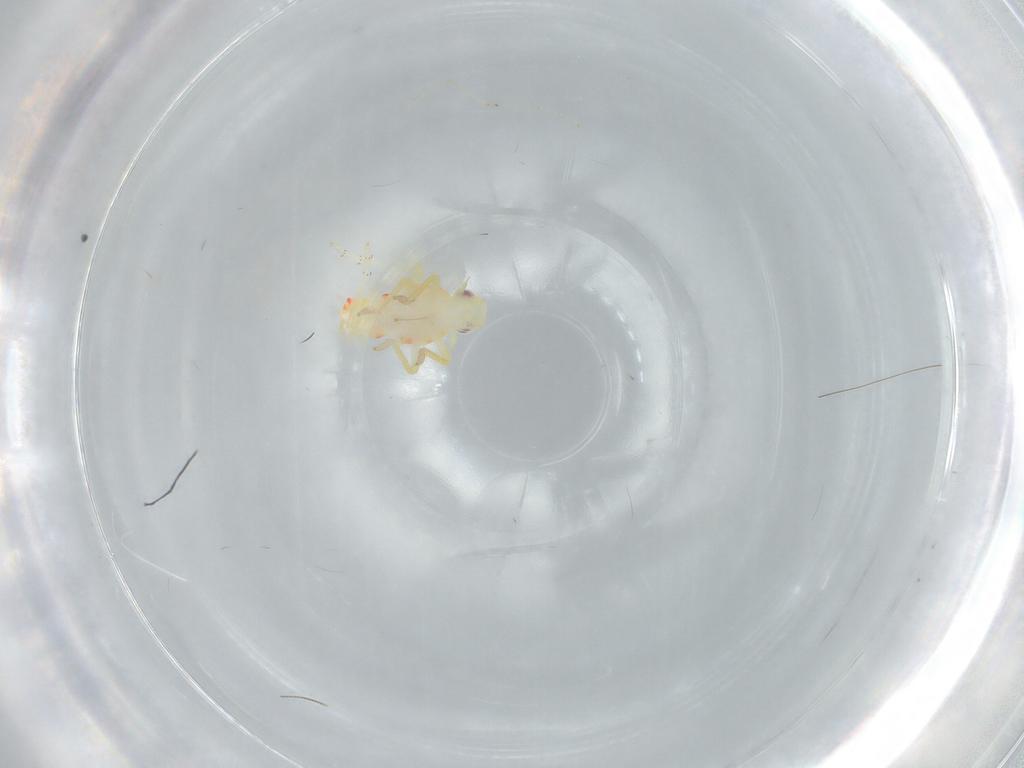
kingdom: Animalia
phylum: Arthropoda
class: Insecta
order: Hemiptera
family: Tropiduchidae
